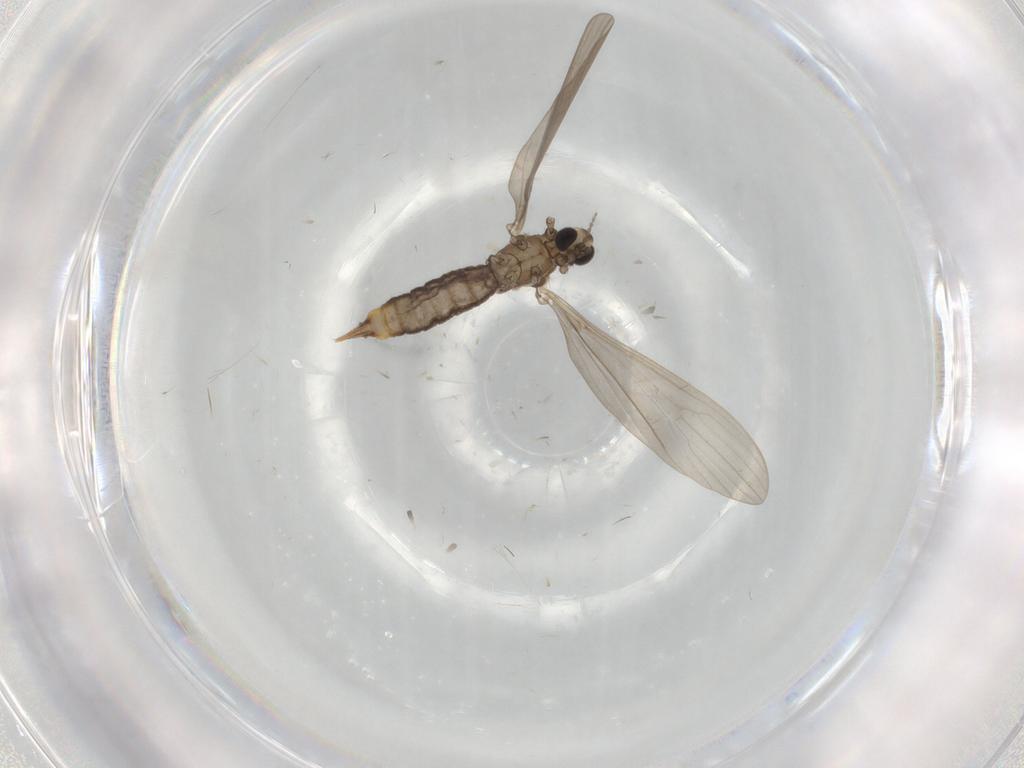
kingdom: Animalia
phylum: Arthropoda
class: Insecta
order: Diptera
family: Limoniidae
